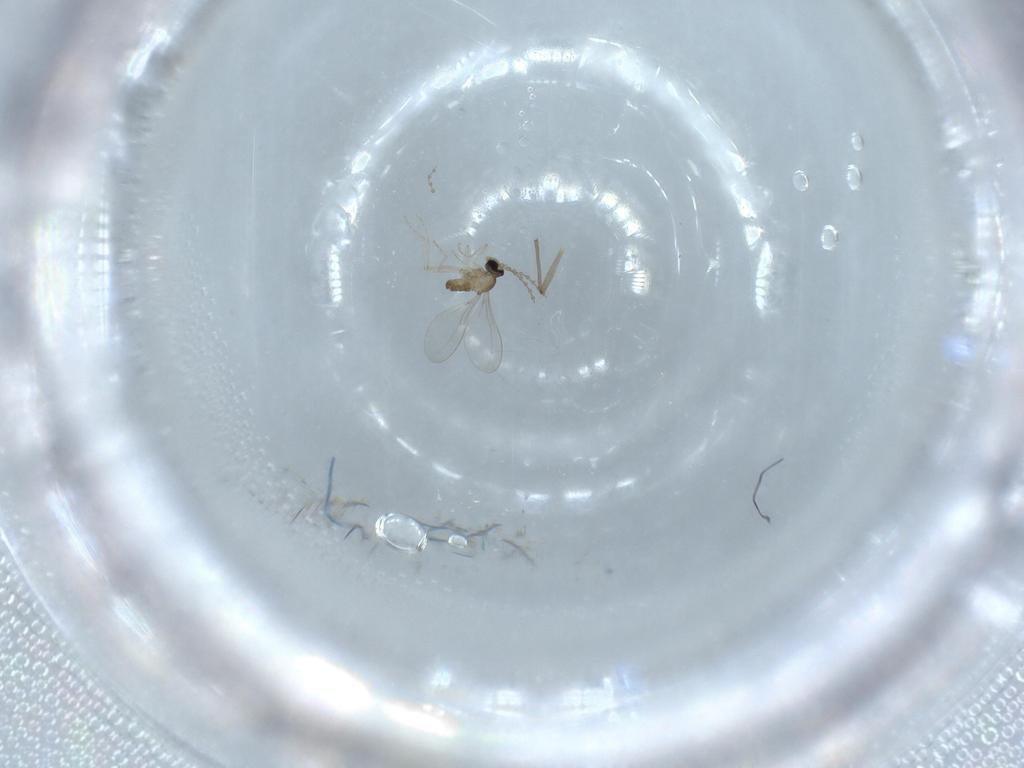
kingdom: Animalia
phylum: Arthropoda
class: Insecta
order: Diptera
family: Cecidomyiidae
